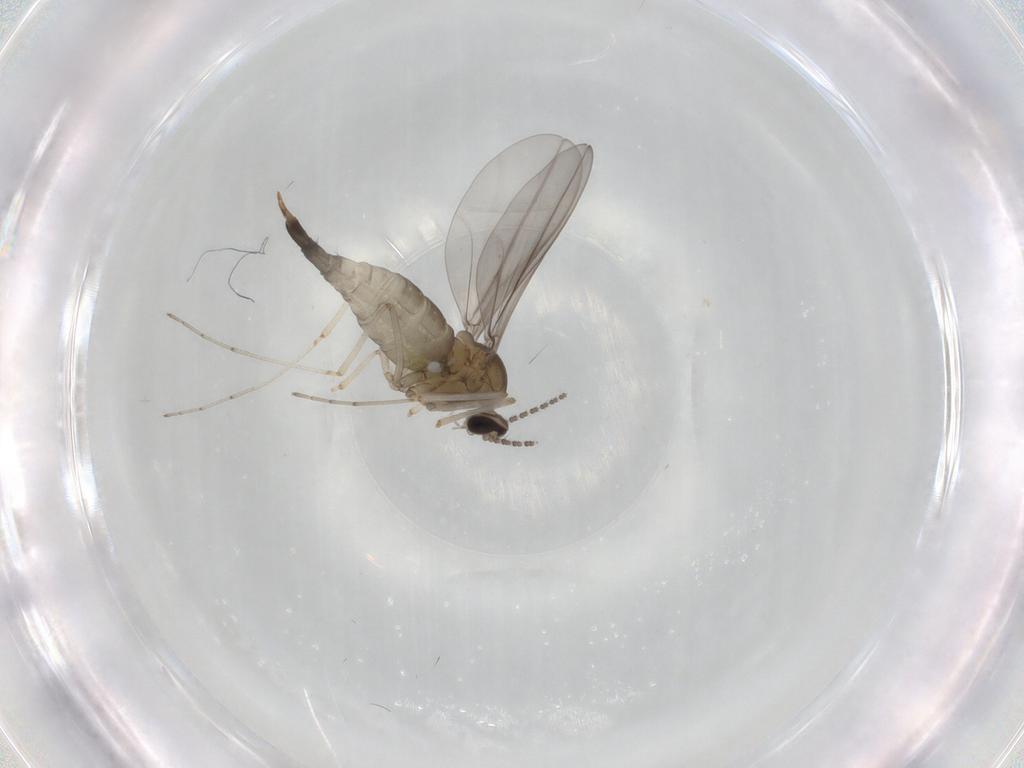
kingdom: Animalia
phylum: Arthropoda
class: Insecta
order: Diptera
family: Cecidomyiidae
